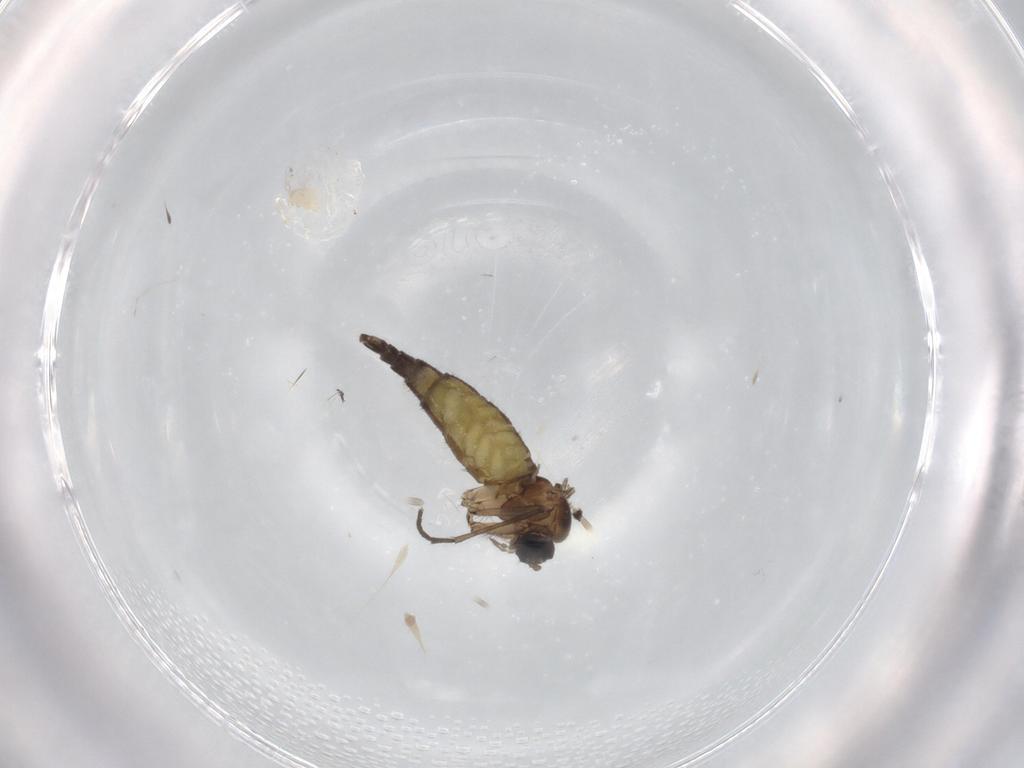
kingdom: Animalia
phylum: Arthropoda
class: Insecta
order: Diptera
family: Sciaridae
